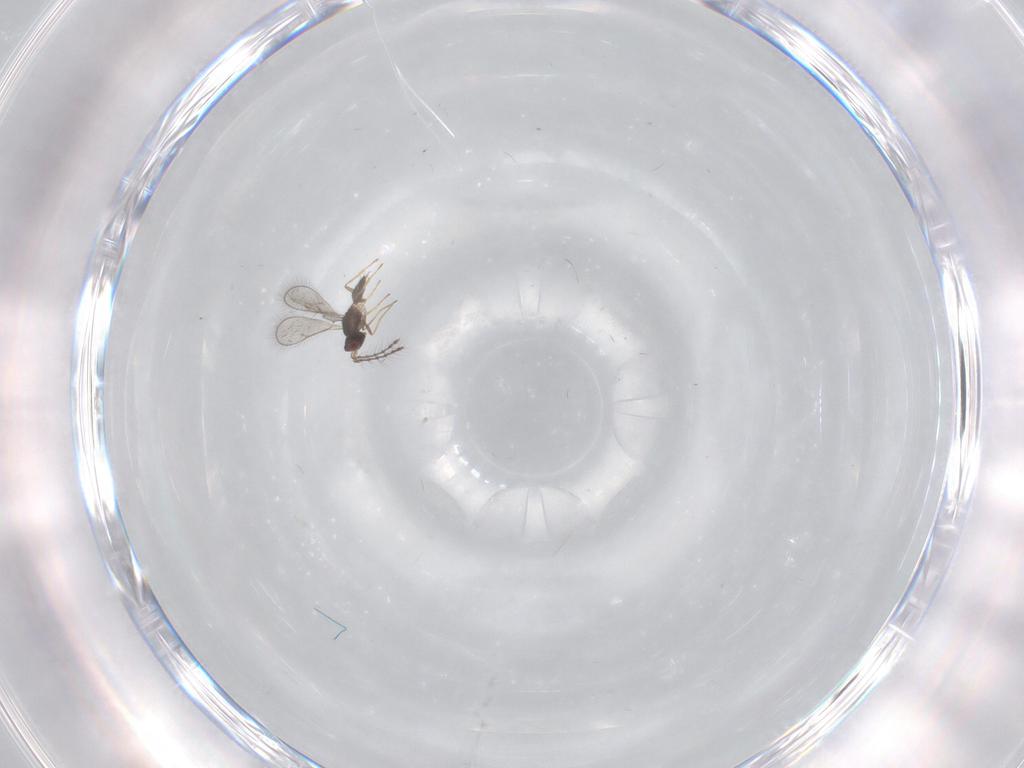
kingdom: Animalia
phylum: Arthropoda
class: Insecta
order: Hymenoptera
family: Eulophidae
